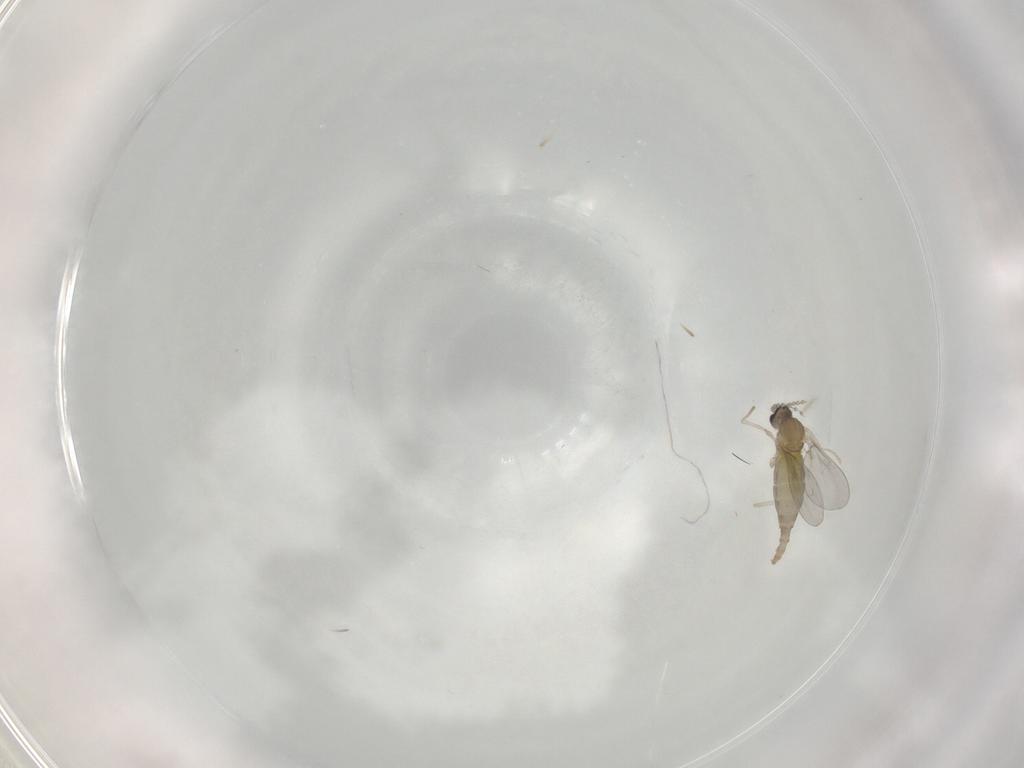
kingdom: Animalia
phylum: Arthropoda
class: Insecta
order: Diptera
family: Cecidomyiidae
